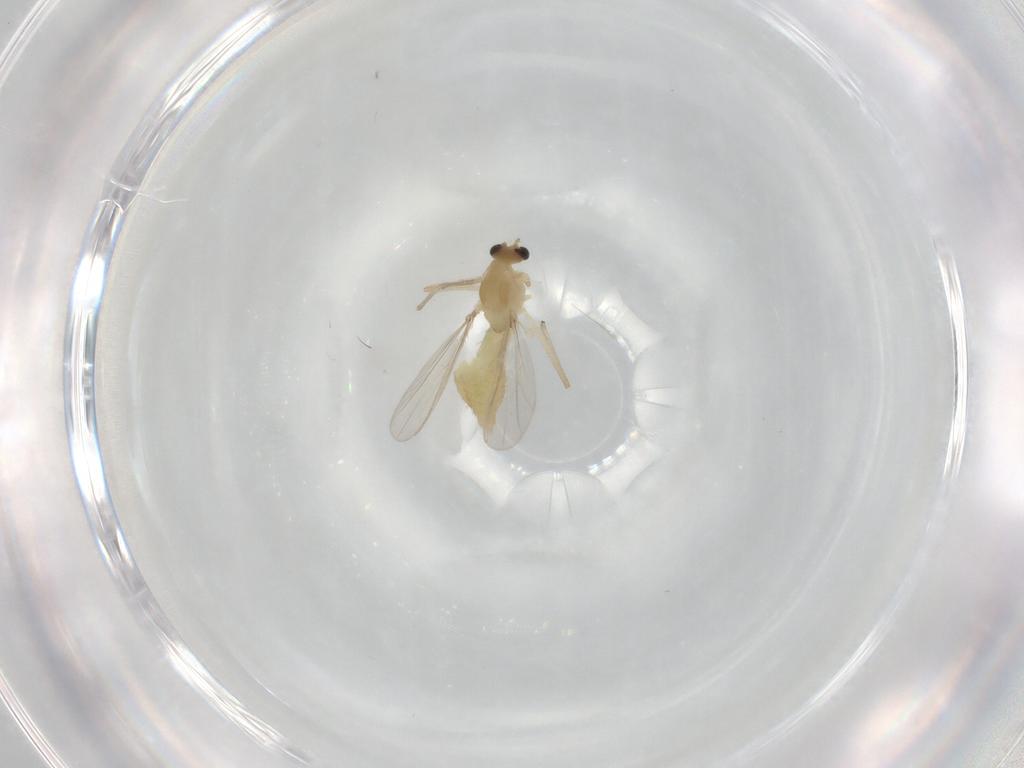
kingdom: Animalia
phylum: Arthropoda
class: Insecta
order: Diptera
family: Chironomidae
